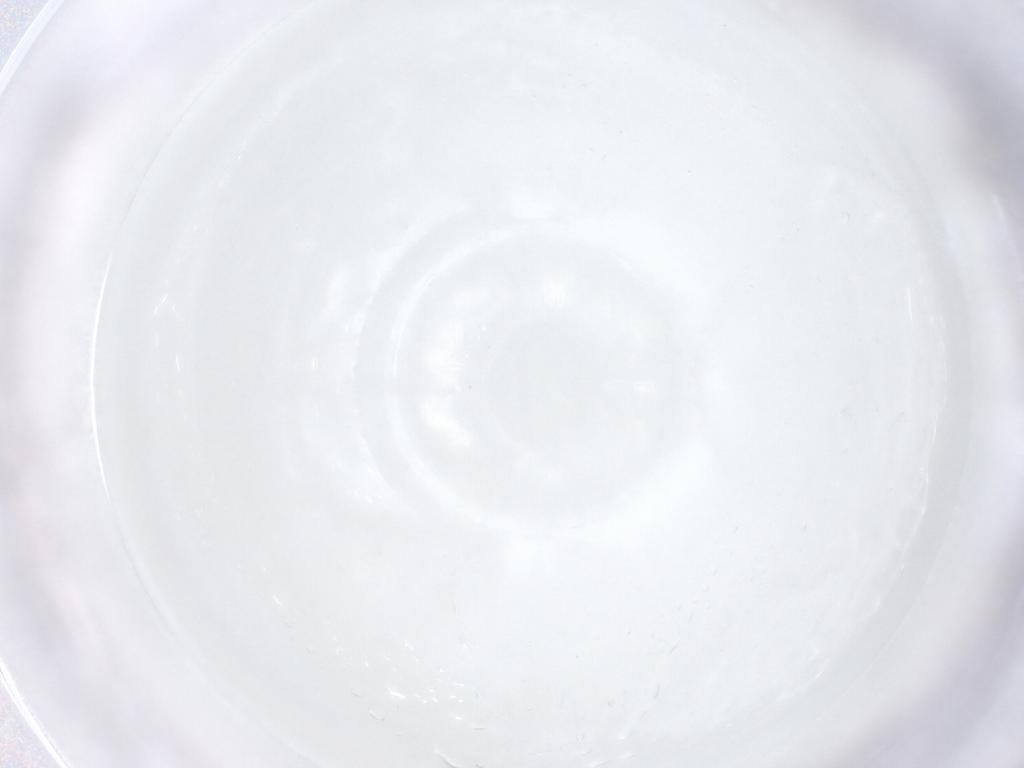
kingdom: Animalia
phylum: Arthropoda
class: Insecta
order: Diptera
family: Cecidomyiidae
